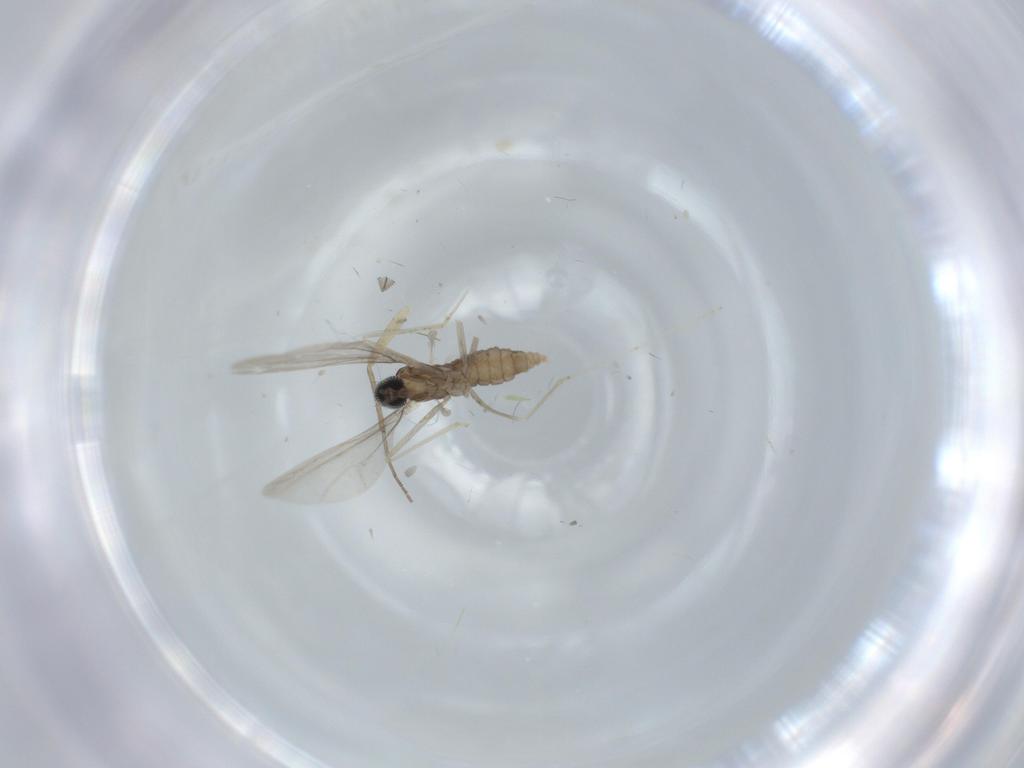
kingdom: Animalia
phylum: Arthropoda
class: Insecta
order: Diptera
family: Cecidomyiidae
